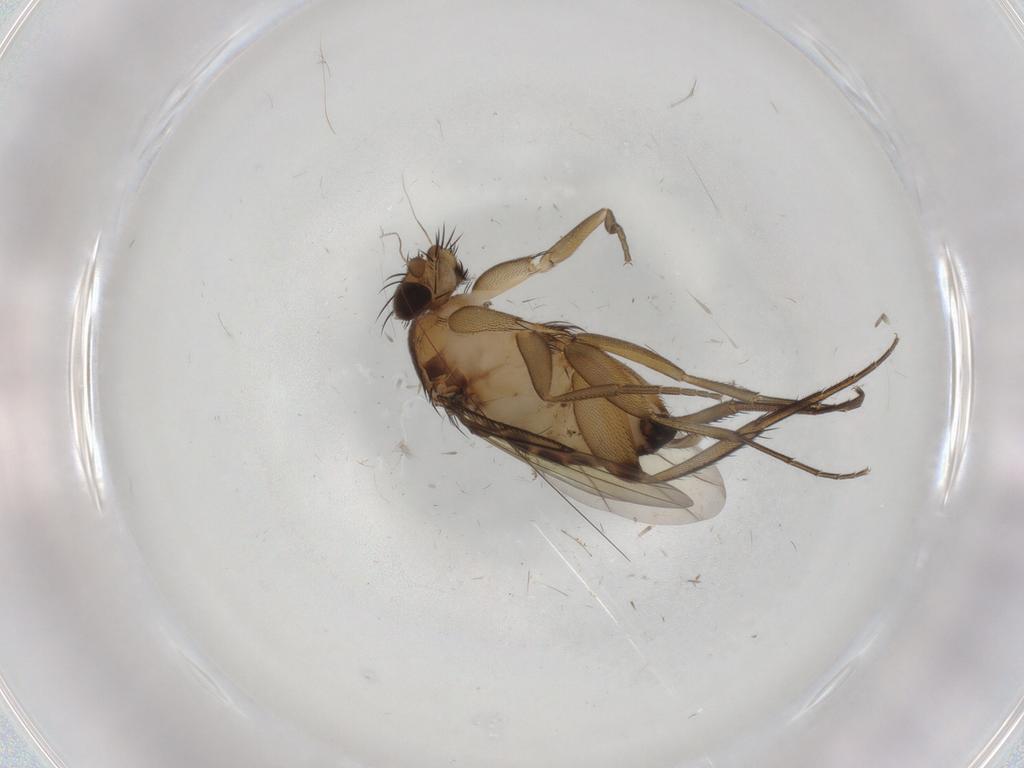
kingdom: Animalia
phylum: Arthropoda
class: Insecta
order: Diptera
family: Phoridae
